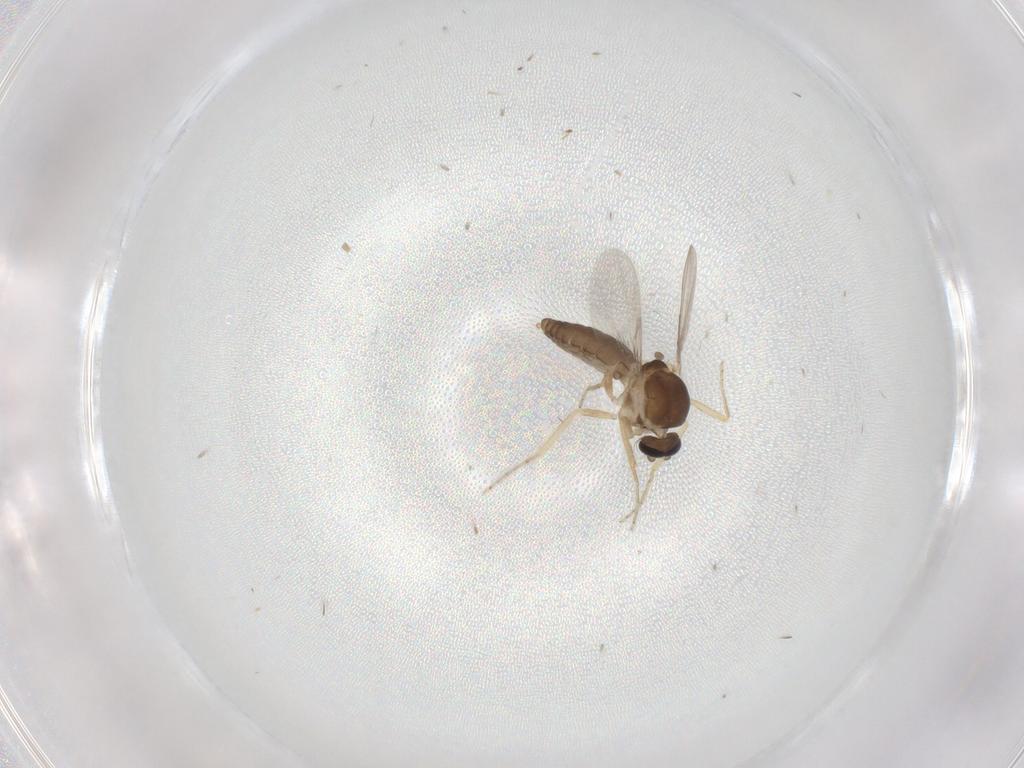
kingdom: Animalia
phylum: Arthropoda
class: Insecta
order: Diptera
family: Ceratopogonidae
